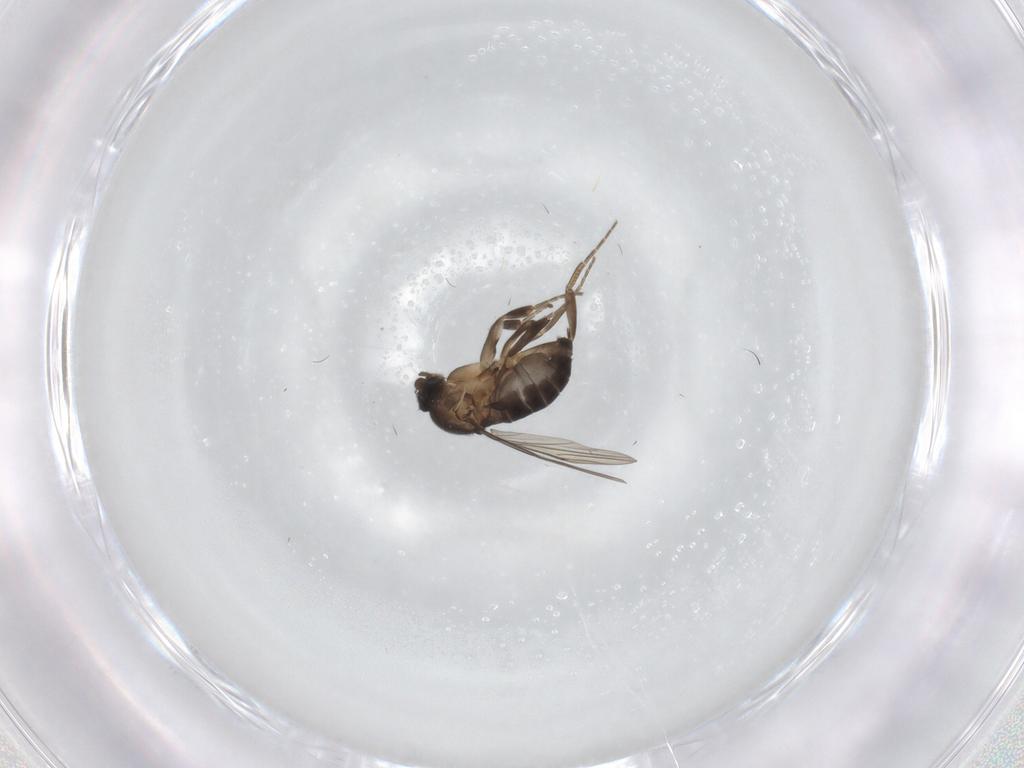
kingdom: Animalia
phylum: Arthropoda
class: Insecta
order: Diptera
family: Phoridae
